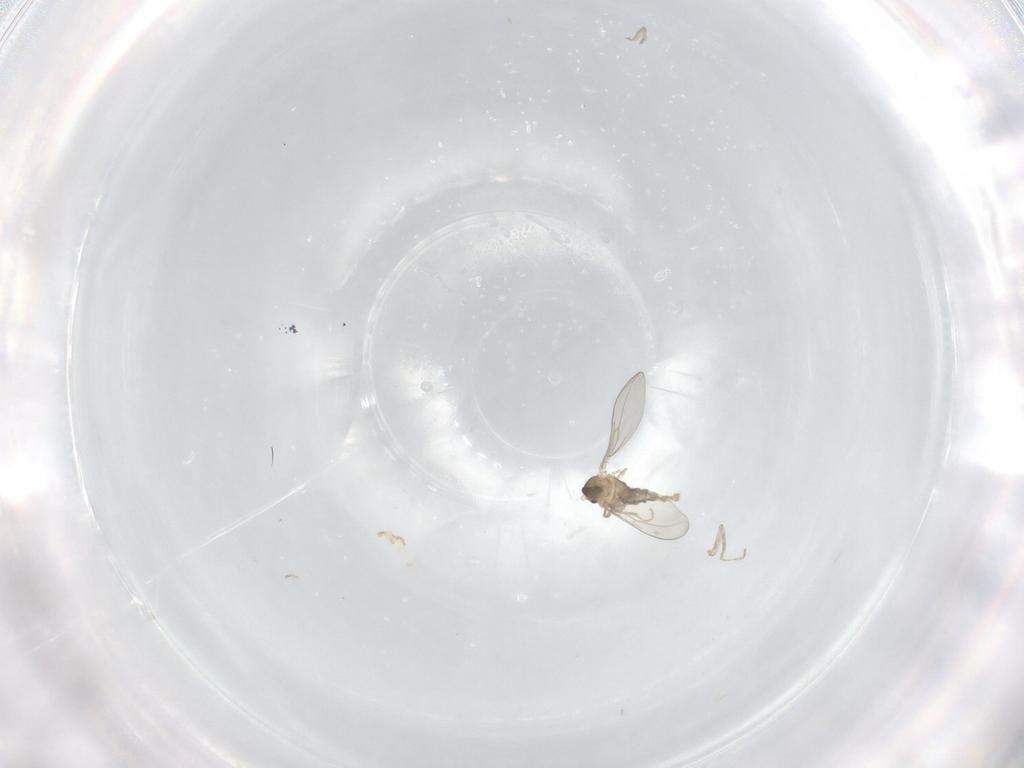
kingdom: Animalia
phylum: Arthropoda
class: Insecta
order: Diptera
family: Cecidomyiidae
